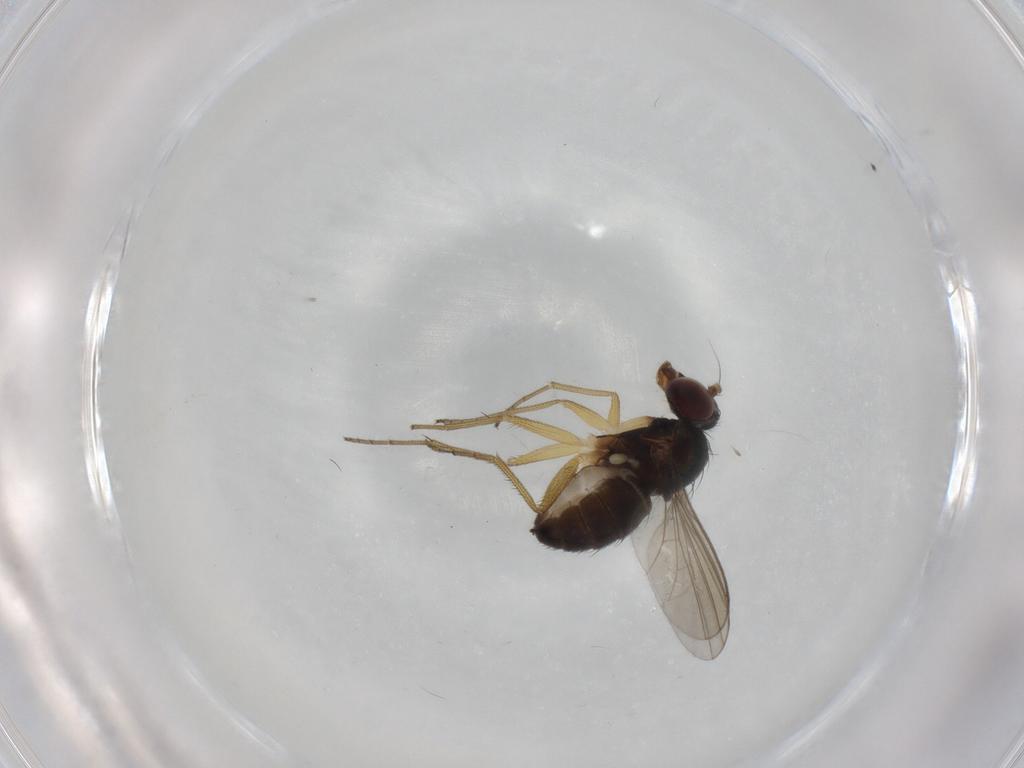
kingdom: Animalia
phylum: Arthropoda
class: Insecta
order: Diptera
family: Dolichopodidae
